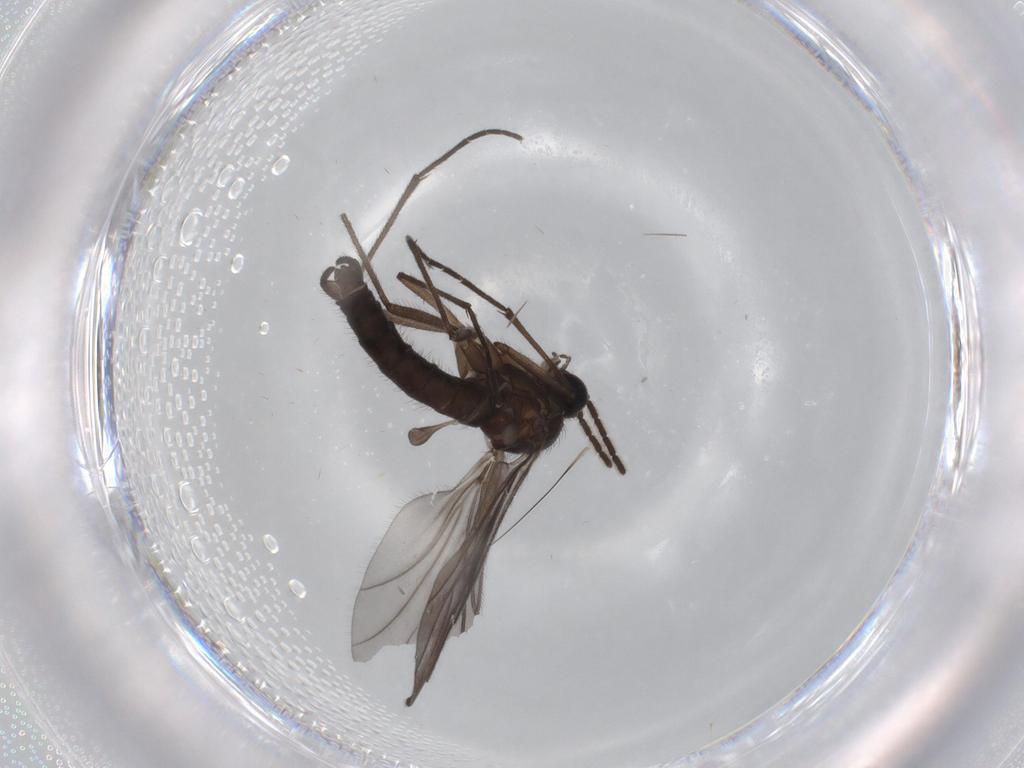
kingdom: Animalia
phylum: Arthropoda
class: Insecta
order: Diptera
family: Sciaridae
